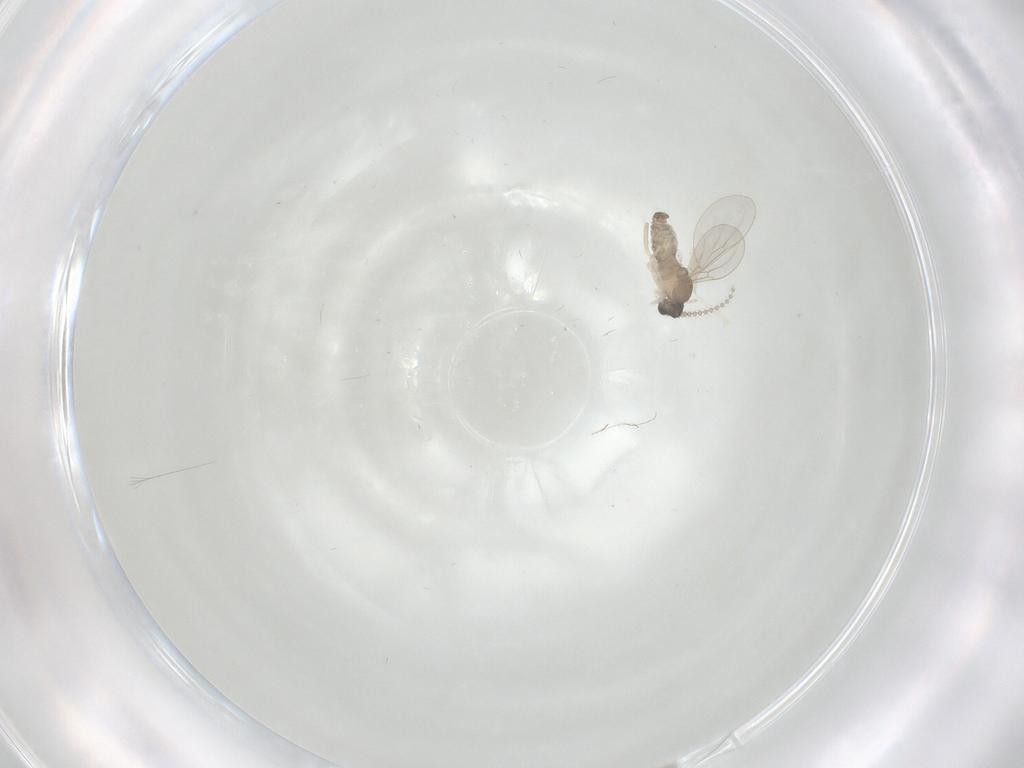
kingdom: Animalia
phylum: Arthropoda
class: Insecta
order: Diptera
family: Cecidomyiidae
